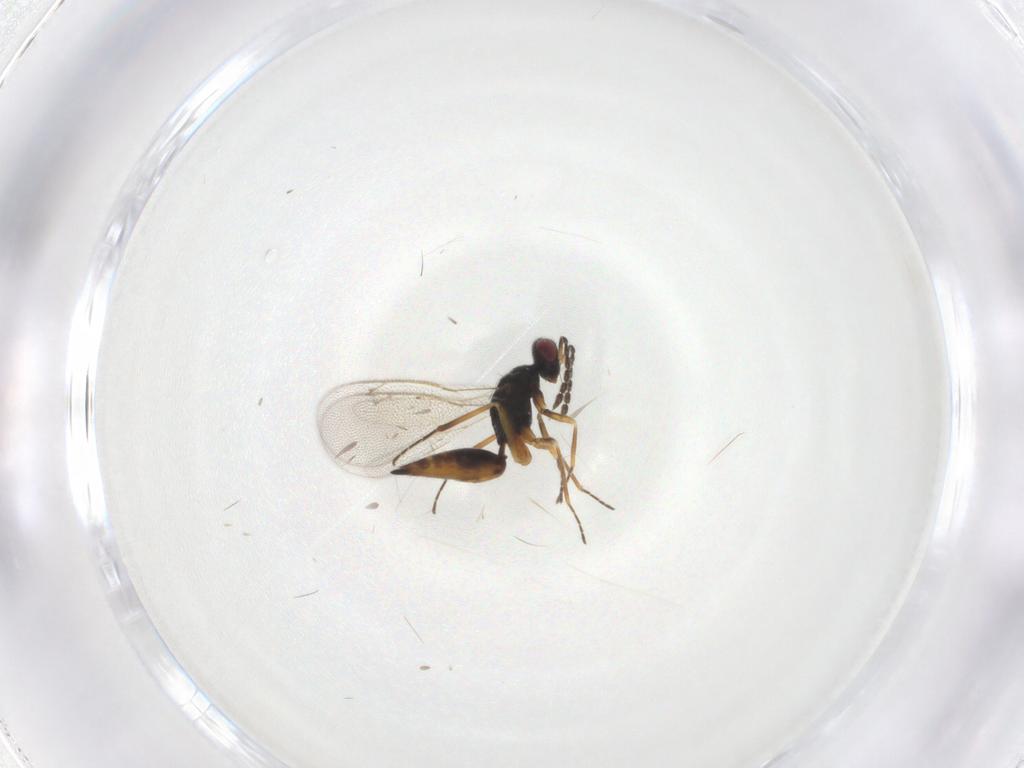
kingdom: Animalia
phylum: Arthropoda
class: Insecta
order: Hymenoptera
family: Eulophidae
